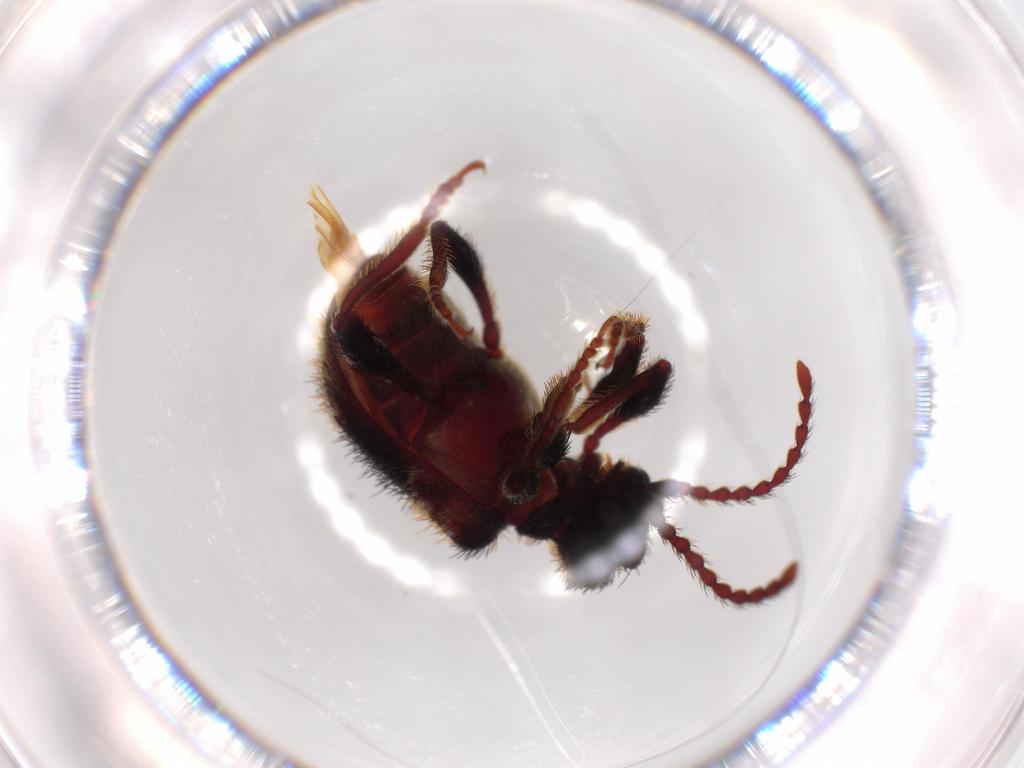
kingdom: Animalia
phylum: Arthropoda
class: Insecta
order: Coleoptera
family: Ptinidae
